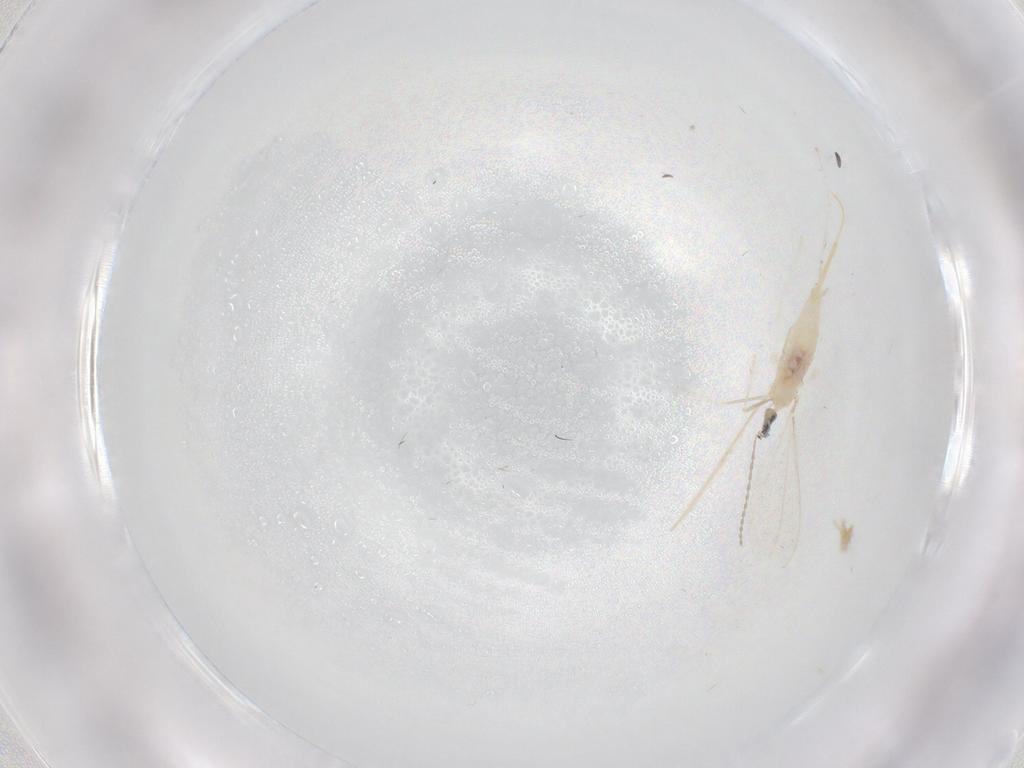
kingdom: Animalia
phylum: Arthropoda
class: Insecta
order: Diptera
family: Cecidomyiidae
